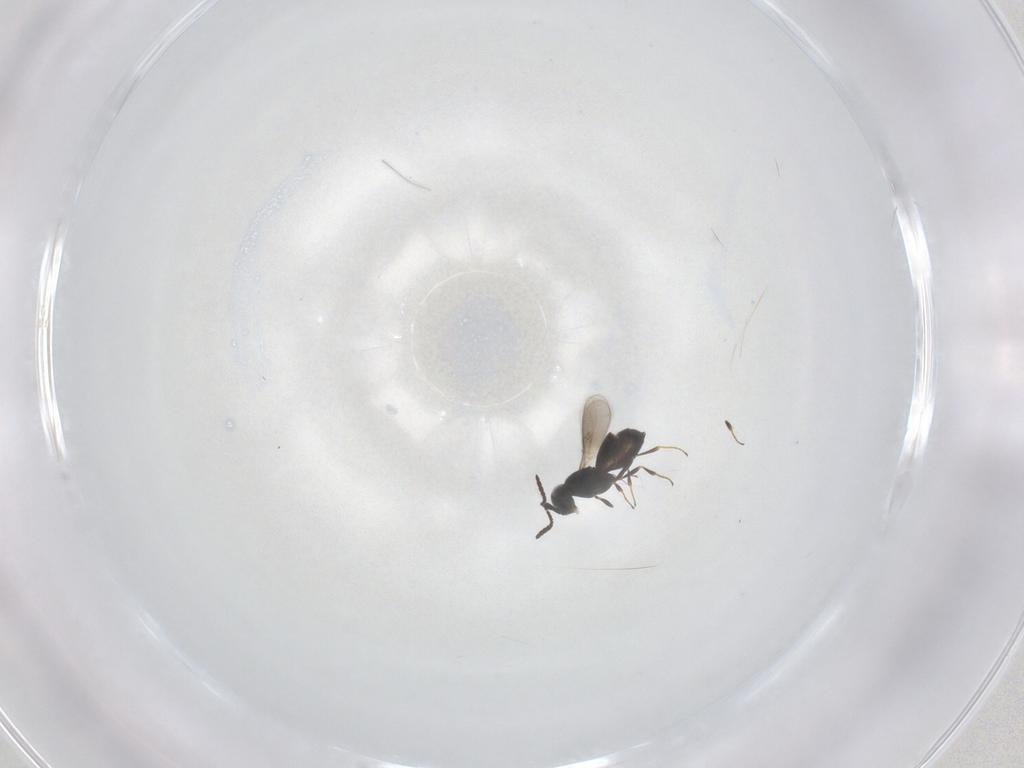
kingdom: Animalia
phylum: Arthropoda
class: Insecta
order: Hymenoptera
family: Scelionidae
